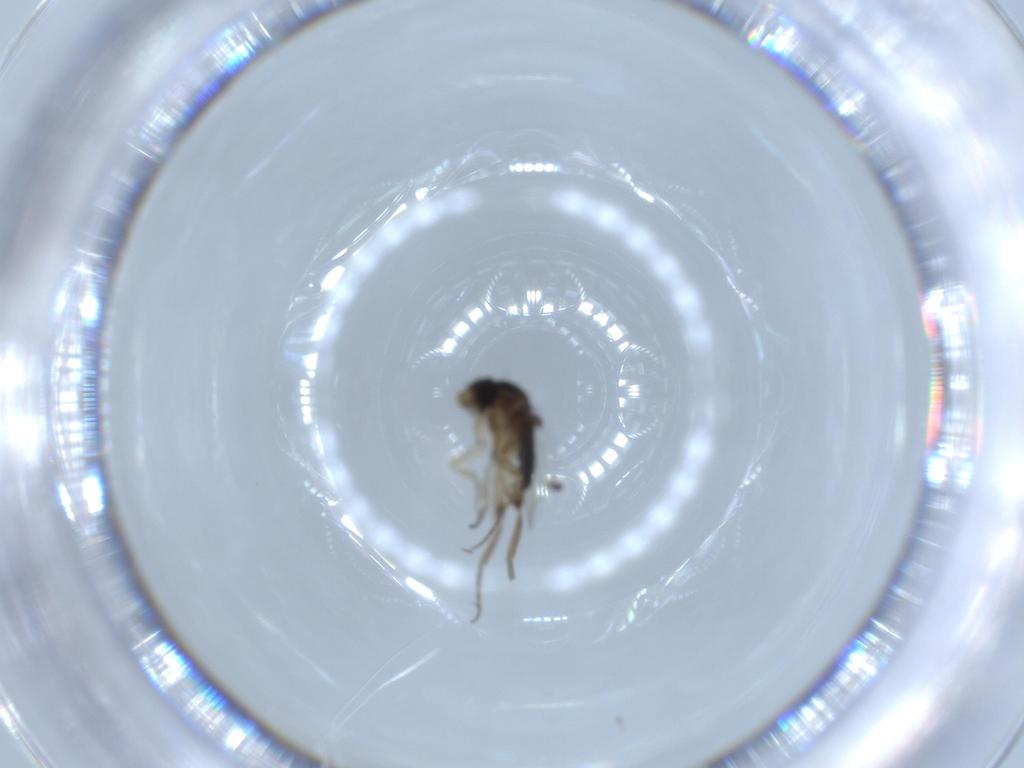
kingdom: Animalia
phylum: Arthropoda
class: Insecta
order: Diptera
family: Phoridae
